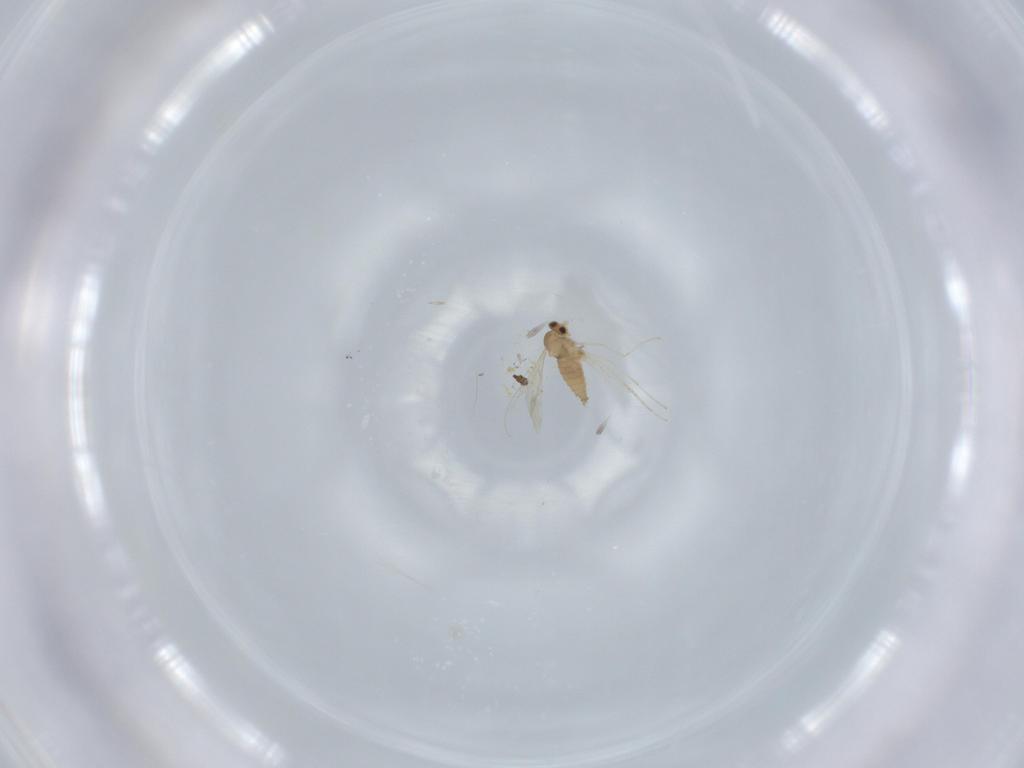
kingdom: Animalia
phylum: Arthropoda
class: Insecta
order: Diptera
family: Cecidomyiidae
